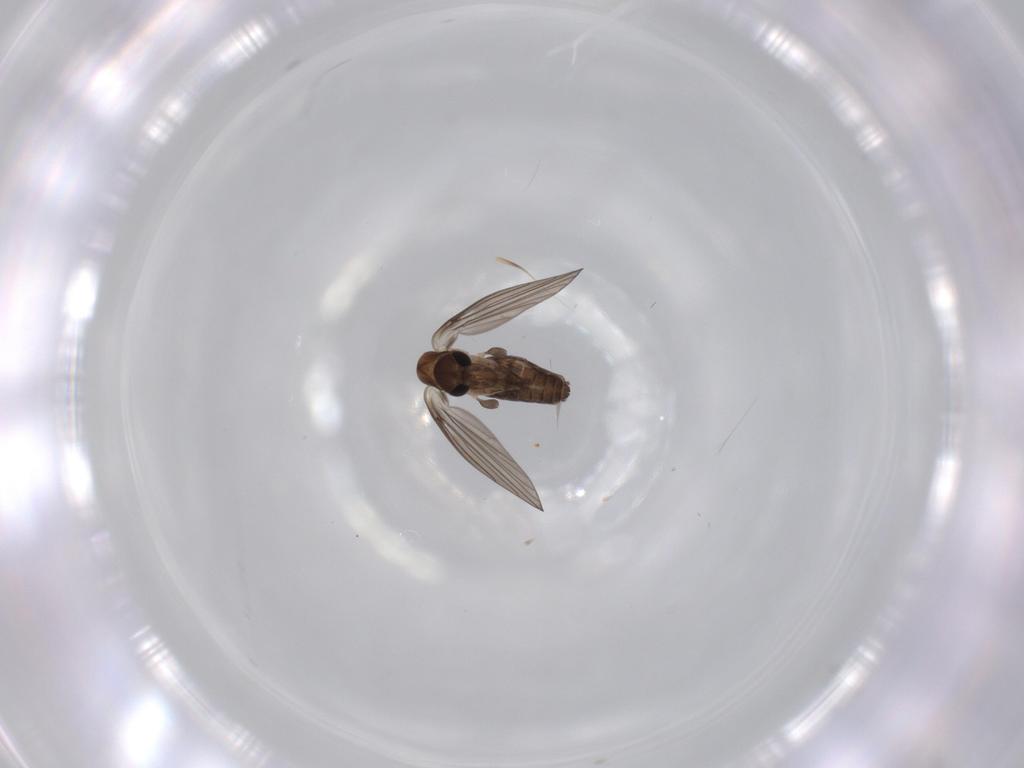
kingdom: Animalia
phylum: Arthropoda
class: Insecta
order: Diptera
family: Psychodidae
